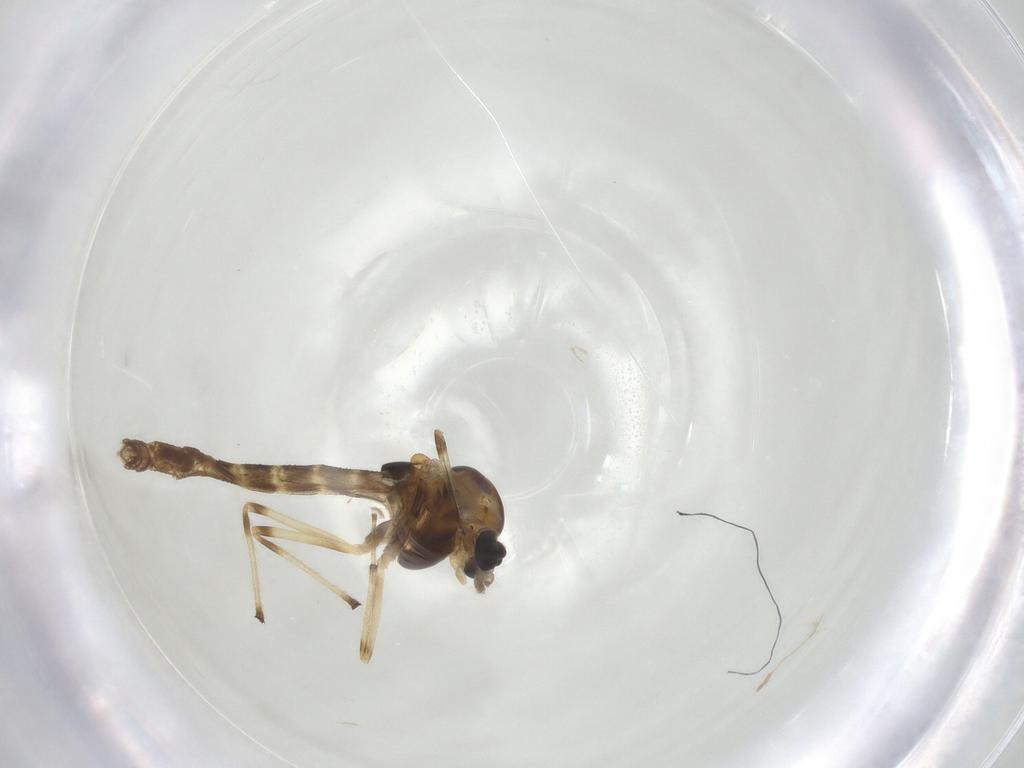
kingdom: Animalia
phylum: Arthropoda
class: Insecta
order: Diptera
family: Chironomidae
